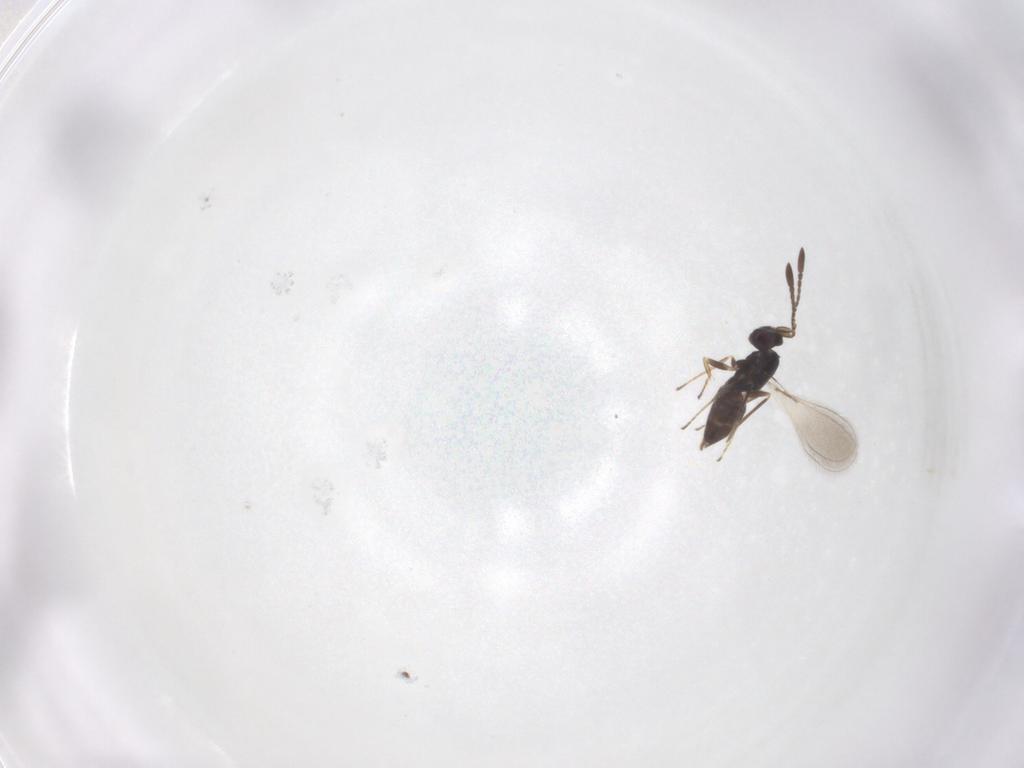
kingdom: Animalia
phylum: Arthropoda
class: Insecta
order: Hymenoptera
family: Mymaridae
